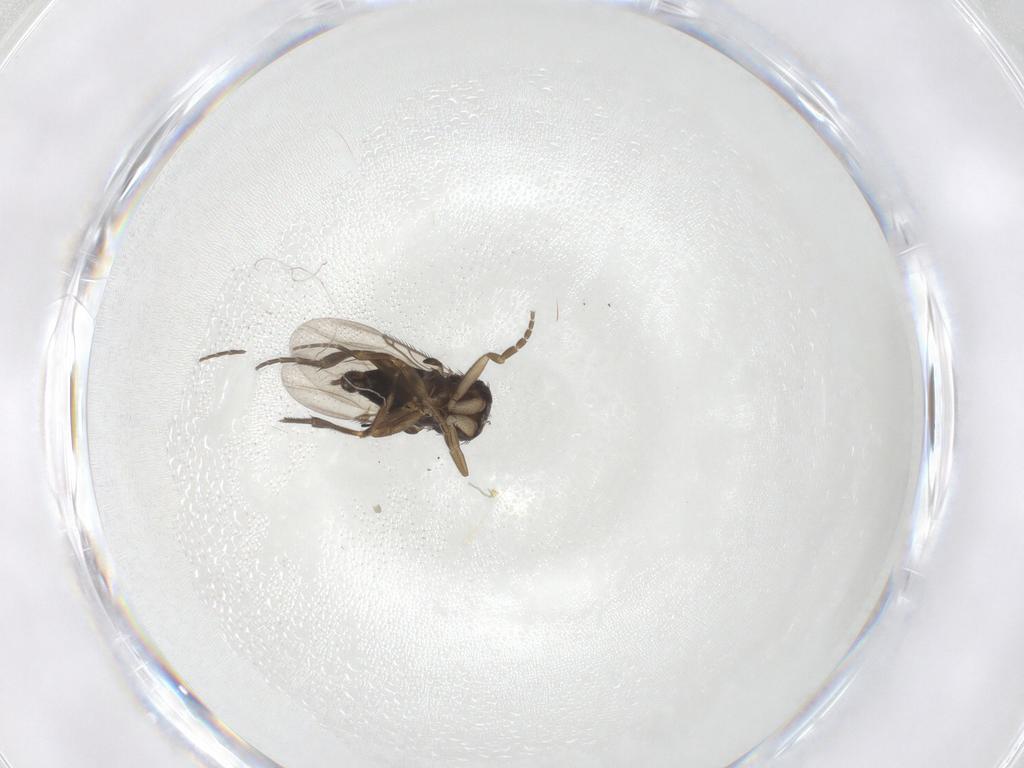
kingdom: Animalia
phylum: Arthropoda
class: Insecta
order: Diptera
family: Phoridae
